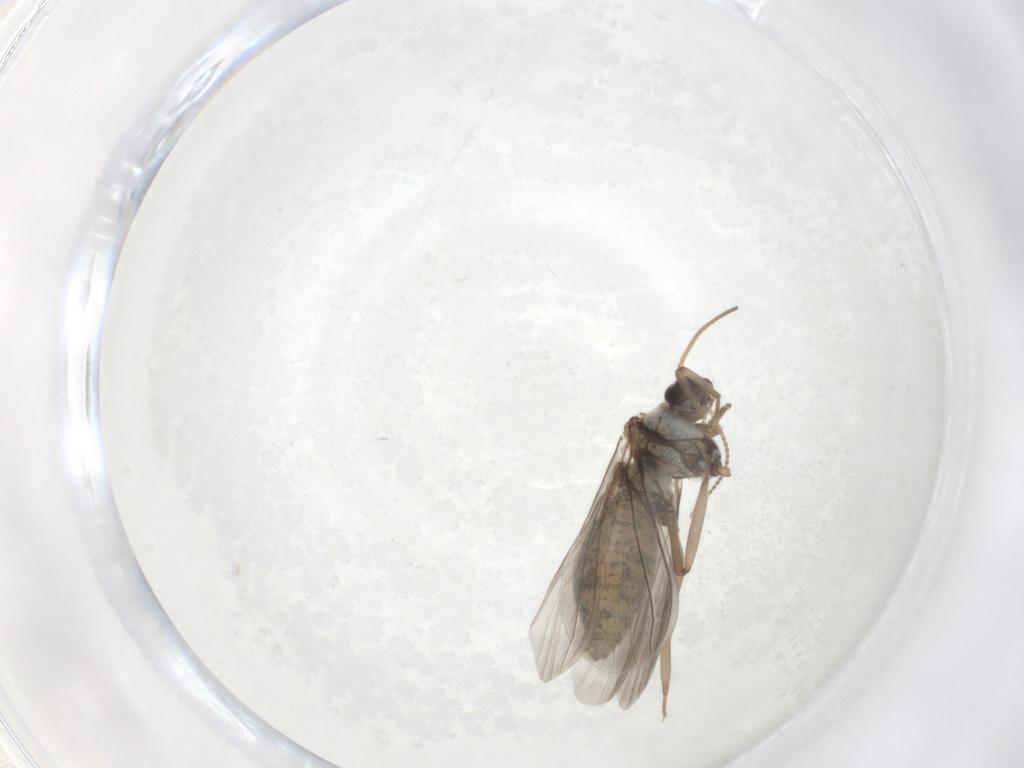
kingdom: Animalia
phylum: Arthropoda
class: Insecta
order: Neuroptera
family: Coniopterygidae
